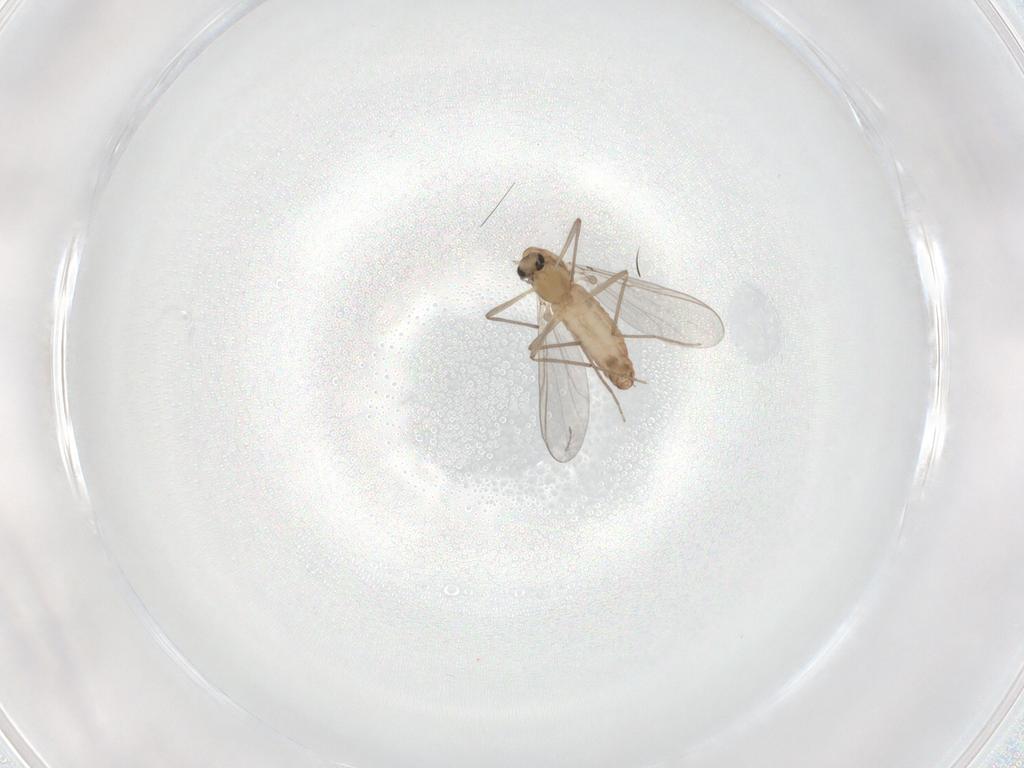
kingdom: Animalia
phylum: Arthropoda
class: Insecta
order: Diptera
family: Chironomidae
